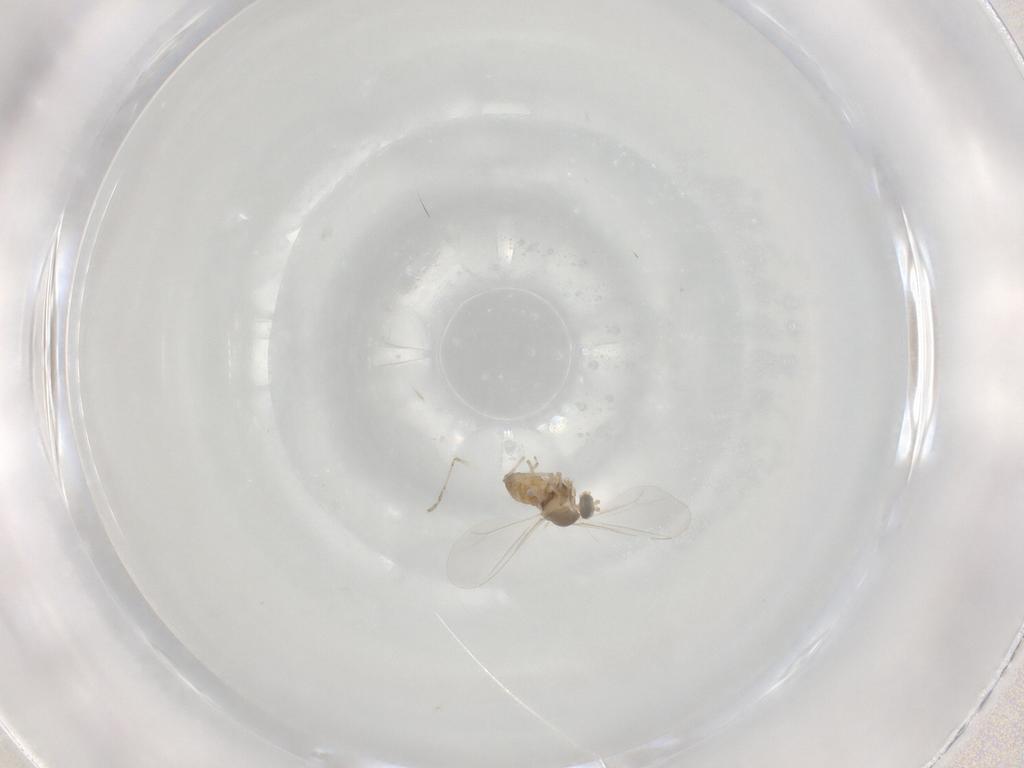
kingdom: Animalia
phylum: Arthropoda
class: Insecta
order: Diptera
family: Cecidomyiidae
